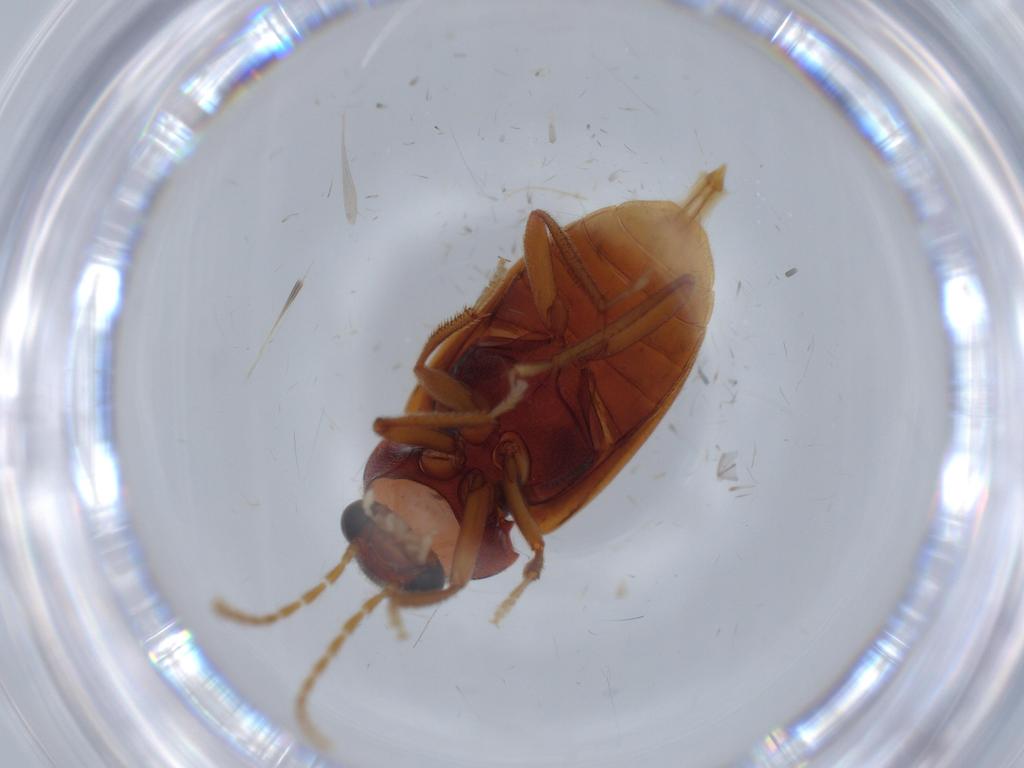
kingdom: Animalia
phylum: Arthropoda
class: Insecta
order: Coleoptera
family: Ptilodactylidae
